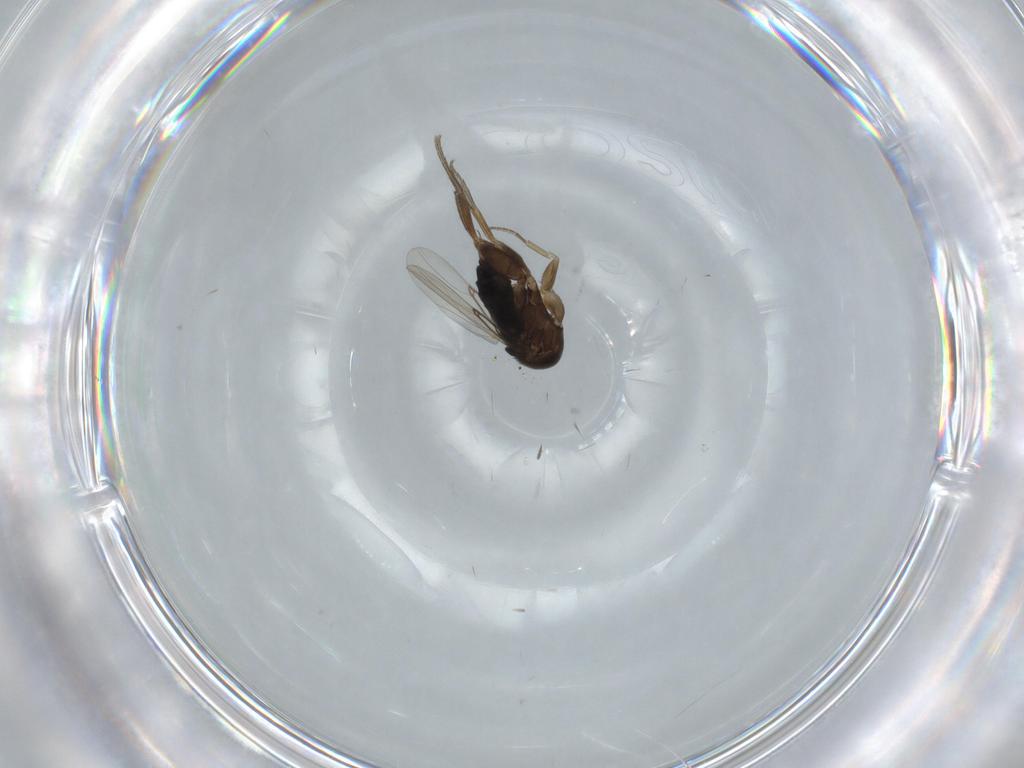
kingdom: Animalia
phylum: Arthropoda
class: Insecta
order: Diptera
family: Phoridae
